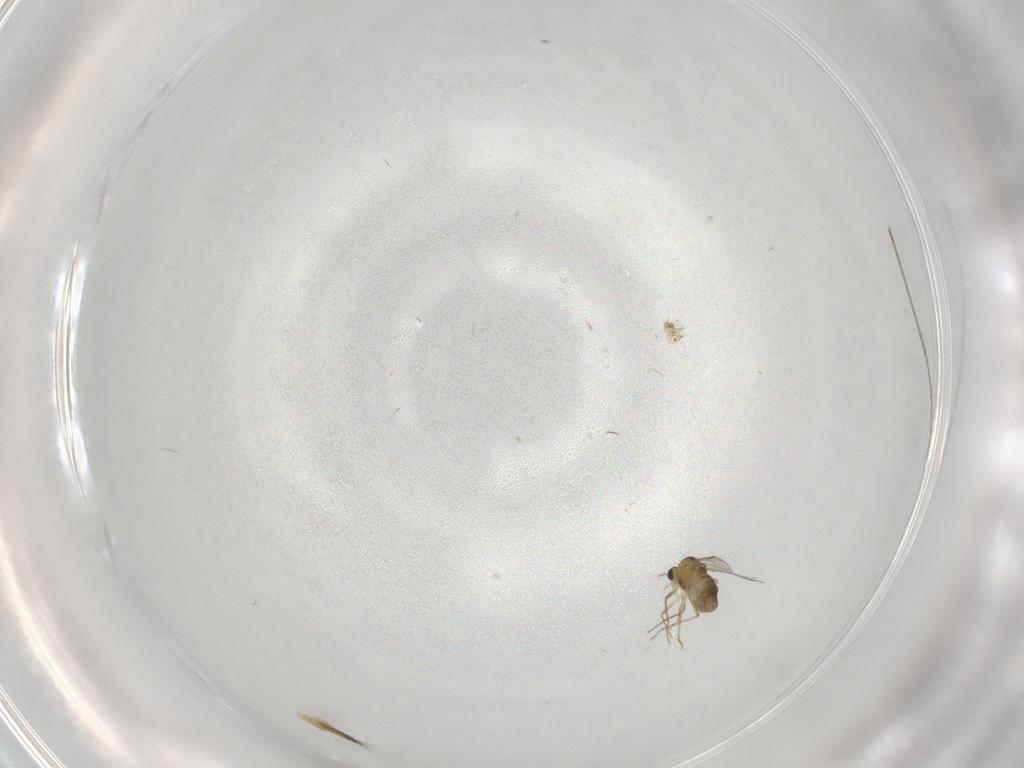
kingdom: Animalia
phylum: Arthropoda
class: Insecta
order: Diptera
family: Chironomidae
